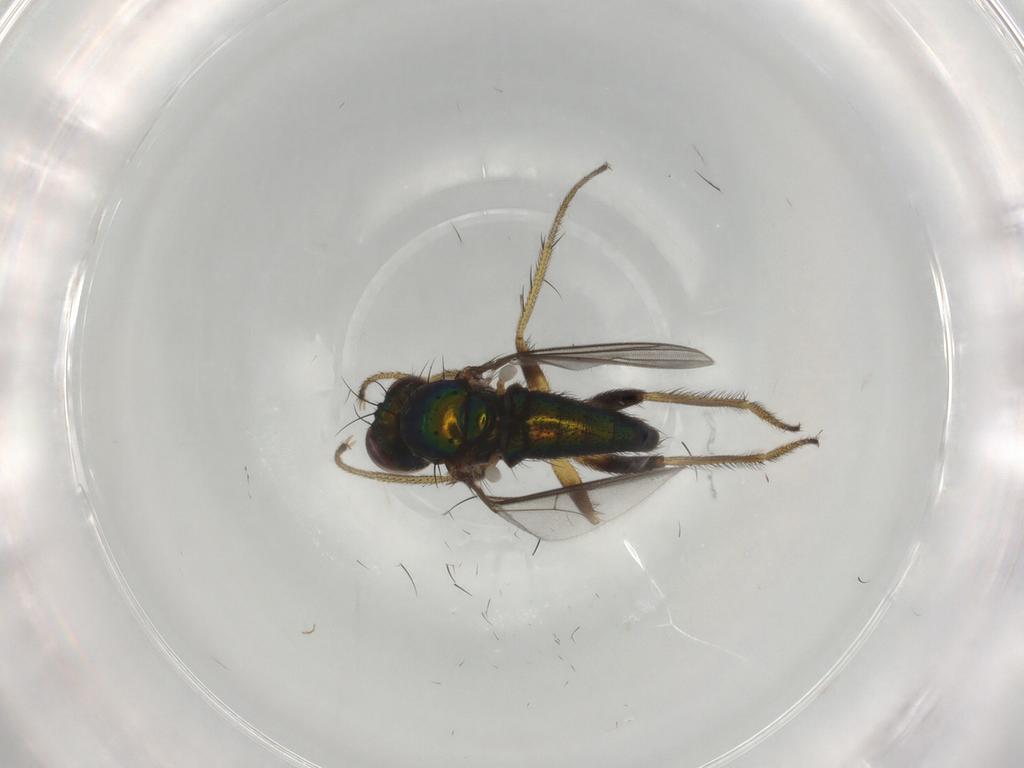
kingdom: Animalia
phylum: Arthropoda
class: Insecta
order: Diptera
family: Dolichopodidae
